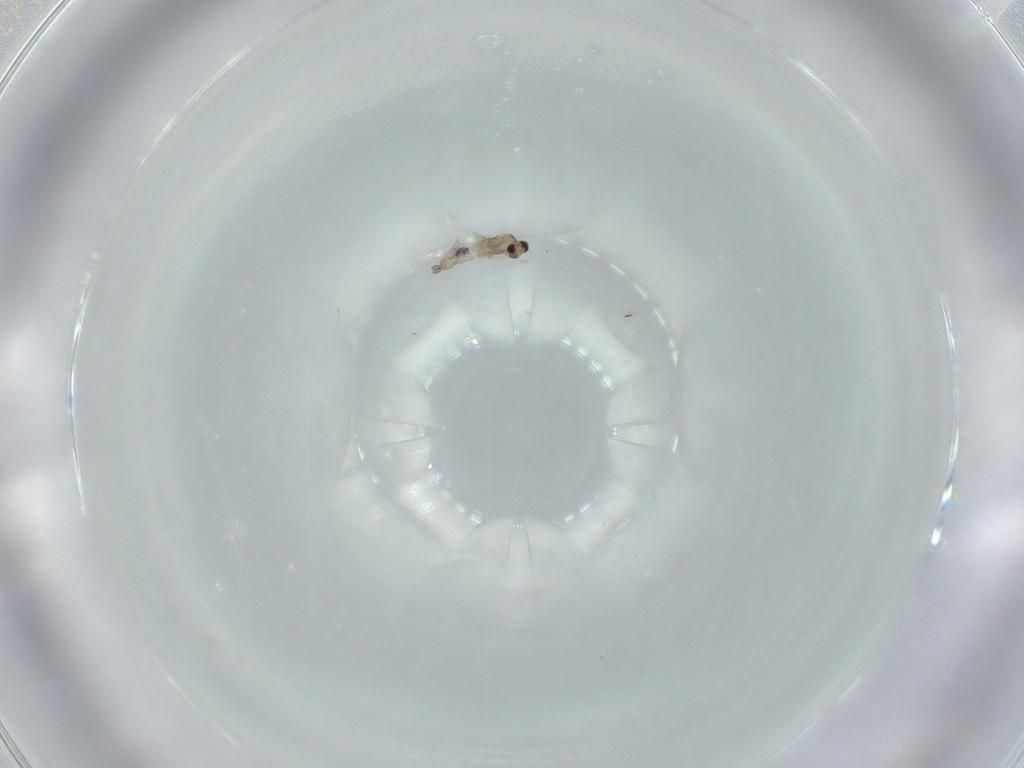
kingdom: Animalia
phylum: Arthropoda
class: Insecta
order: Diptera
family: Cecidomyiidae
